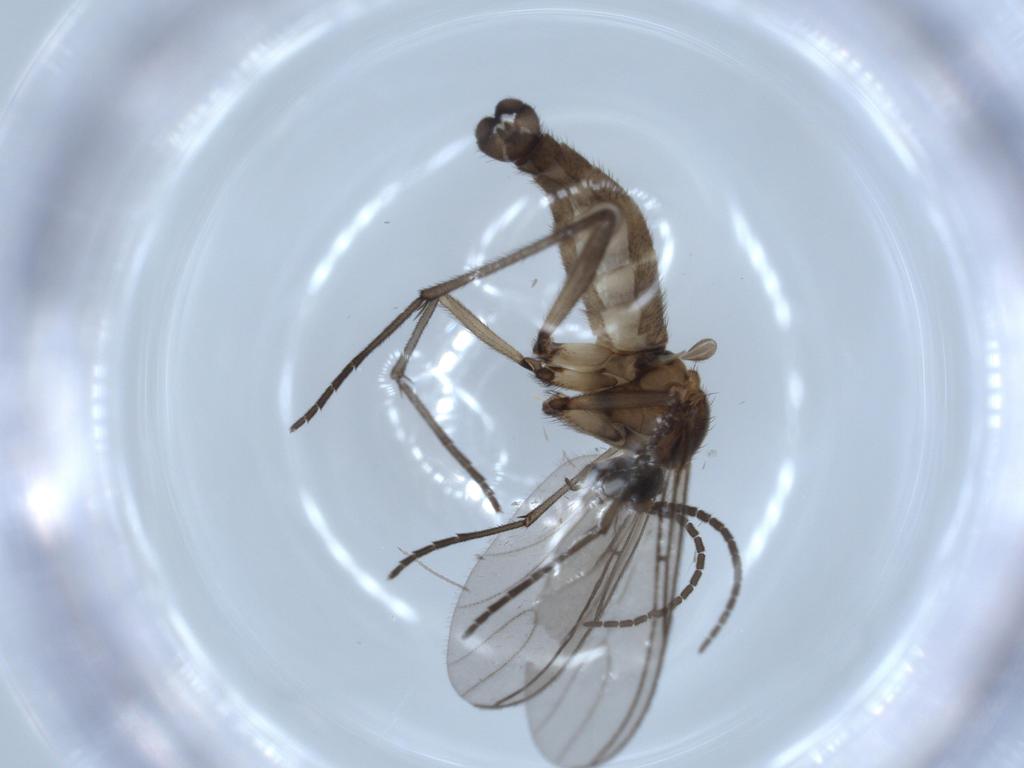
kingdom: Animalia
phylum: Arthropoda
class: Insecta
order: Diptera
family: Sciaridae
